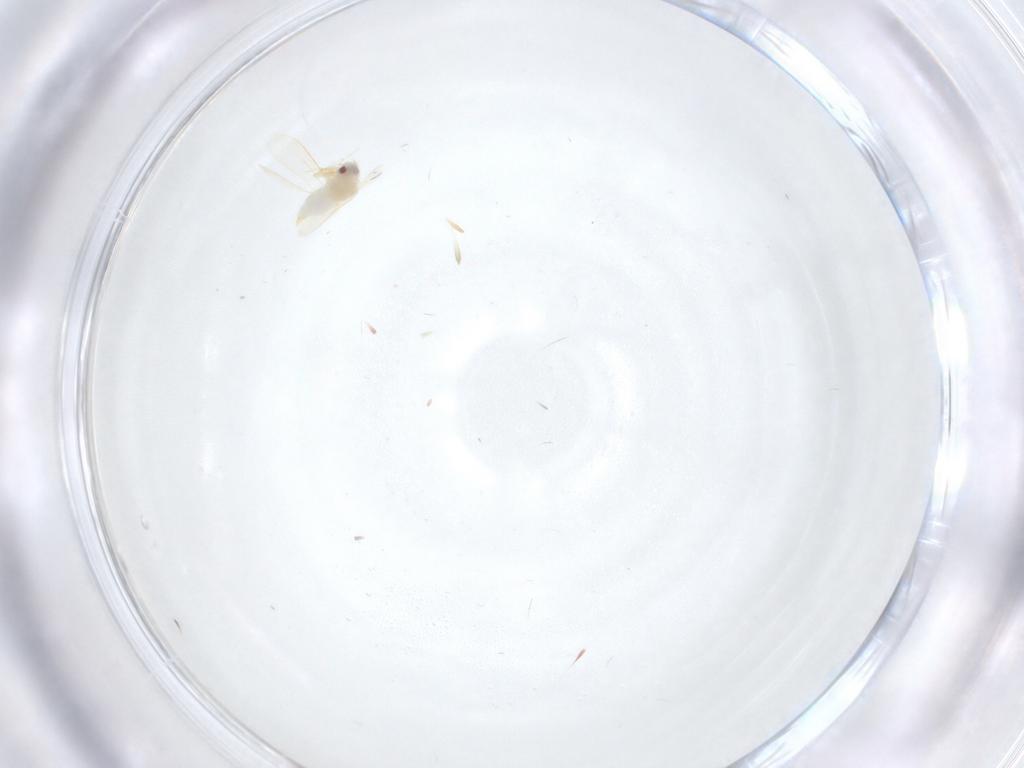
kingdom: Animalia
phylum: Arthropoda
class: Insecta
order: Hemiptera
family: Aleyrodidae
